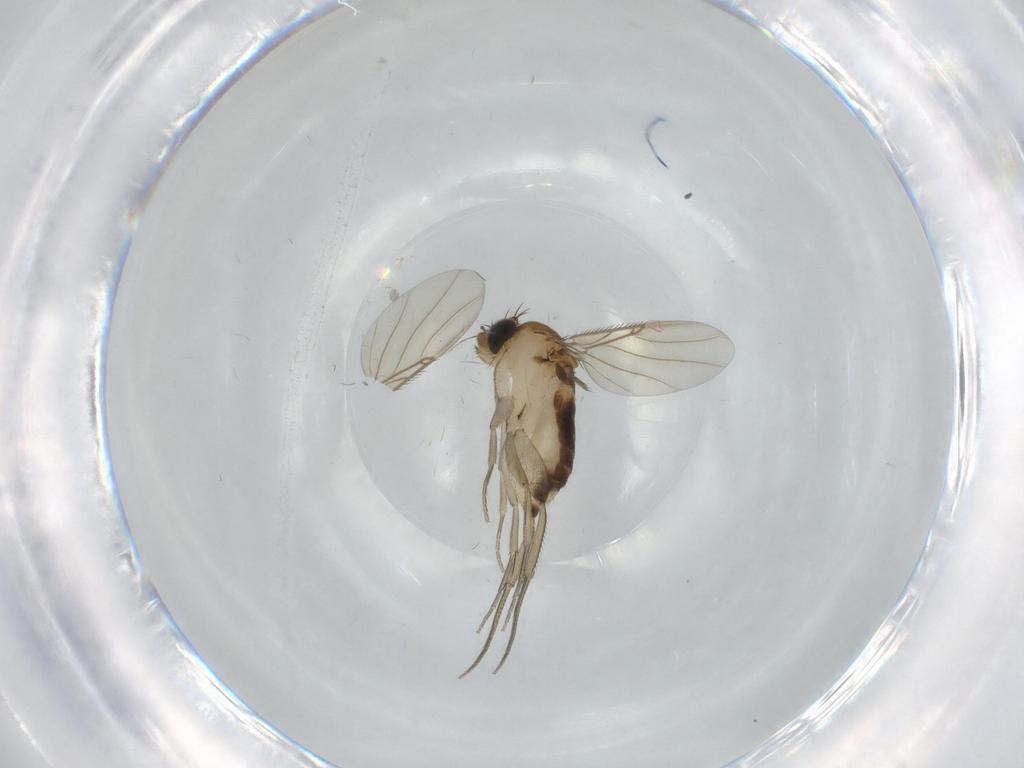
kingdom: Animalia
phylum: Arthropoda
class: Insecta
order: Diptera
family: Phoridae
